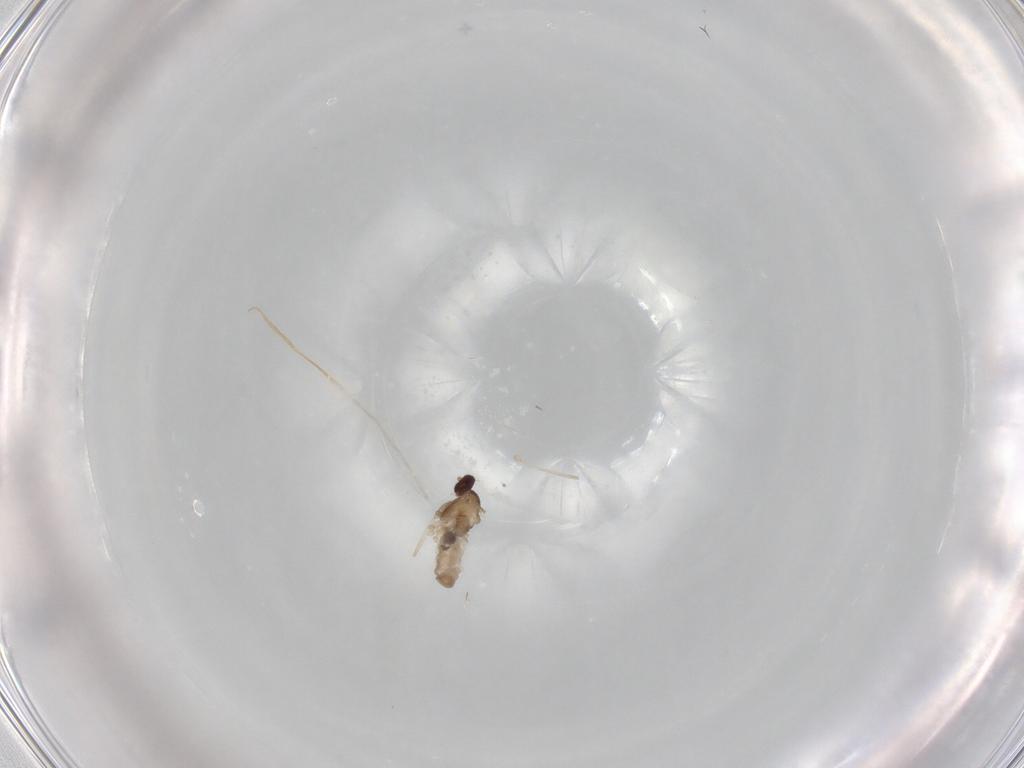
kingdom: Animalia
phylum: Arthropoda
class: Insecta
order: Diptera
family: Cecidomyiidae
